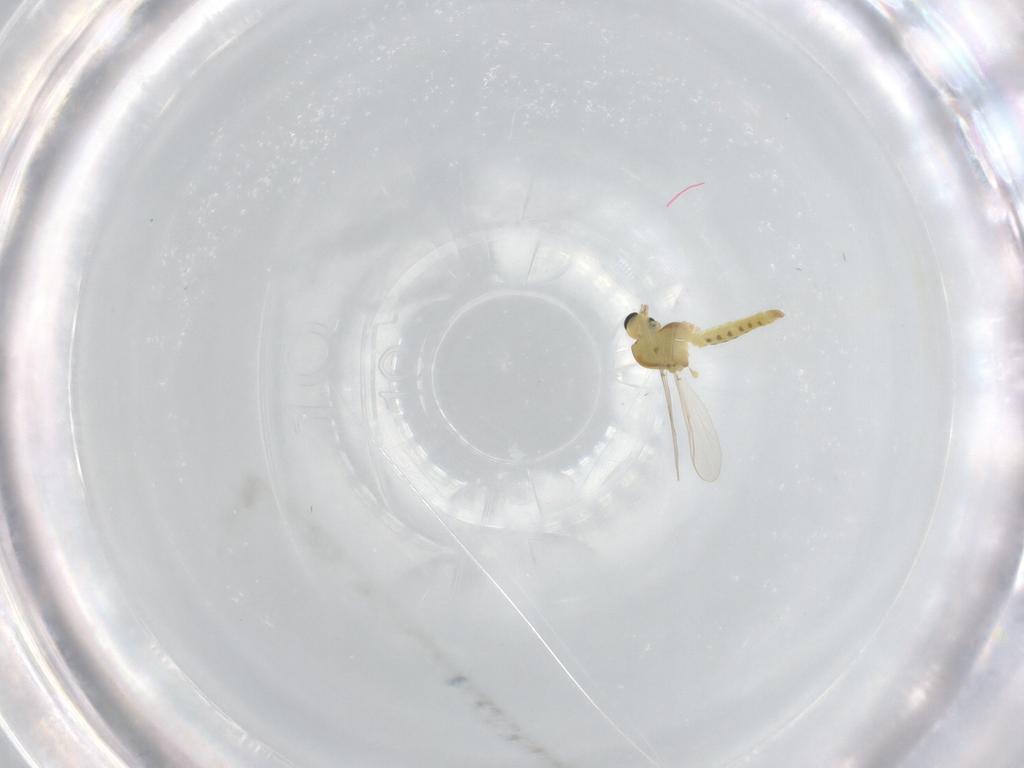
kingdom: Animalia
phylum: Arthropoda
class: Insecta
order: Diptera
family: Chironomidae
